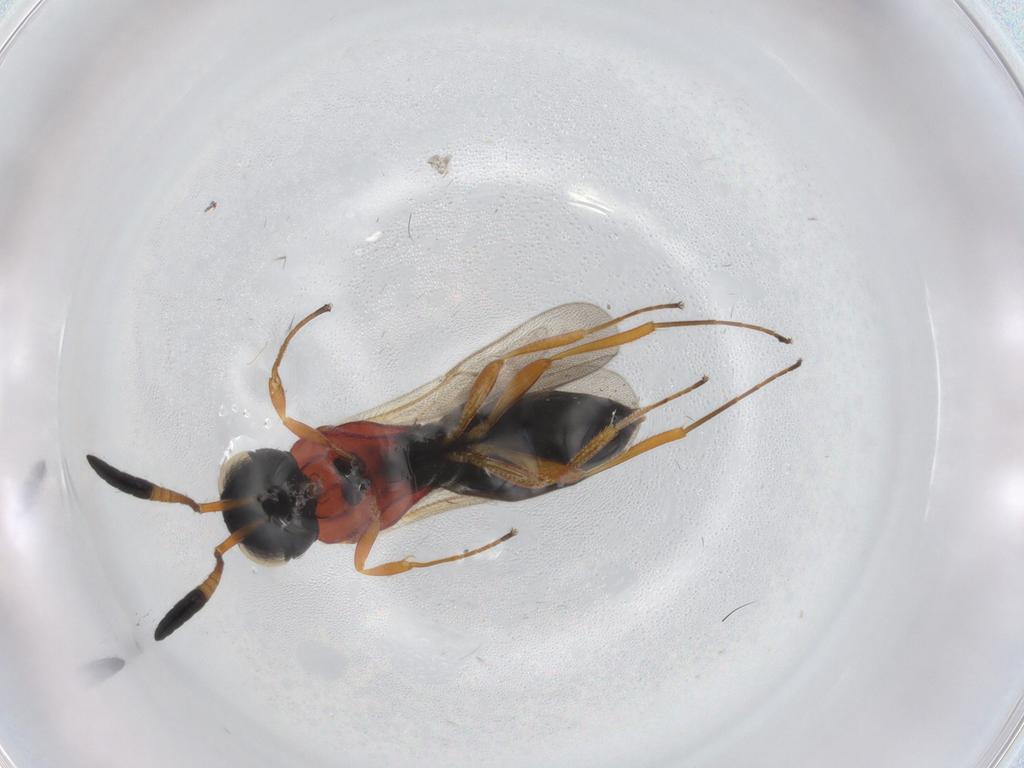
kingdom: Animalia
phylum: Arthropoda
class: Insecta
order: Hymenoptera
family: Scelionidae
